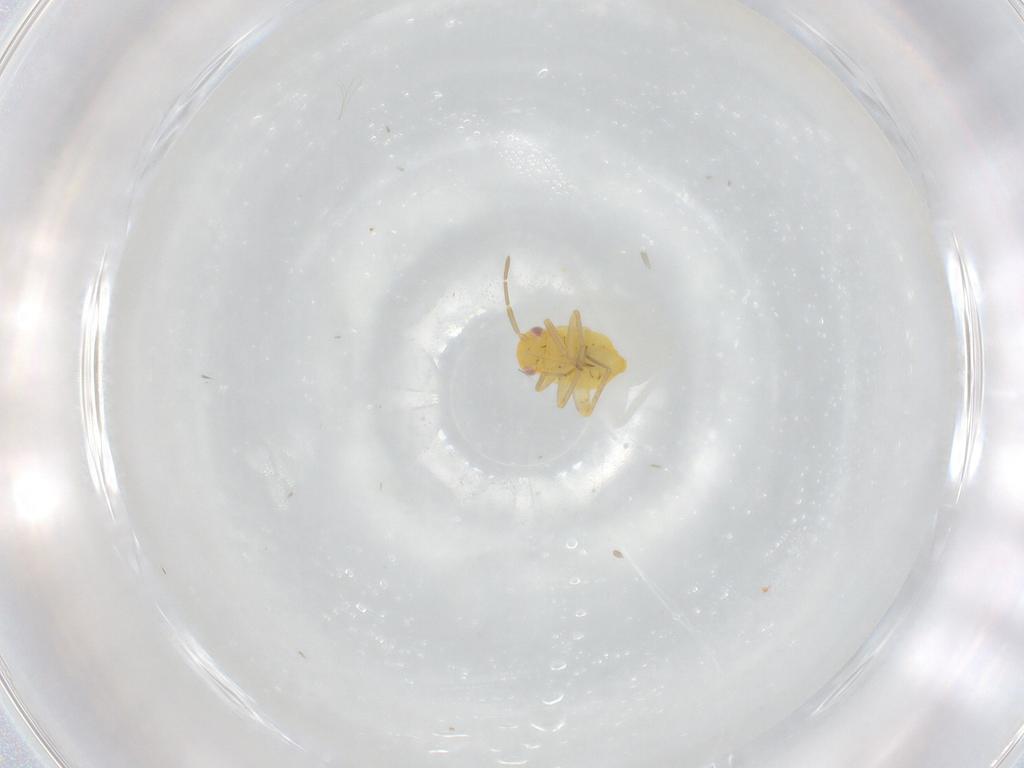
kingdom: Animalia
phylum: Arthropoda
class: Insecta
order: Hemiptera
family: Miridae
